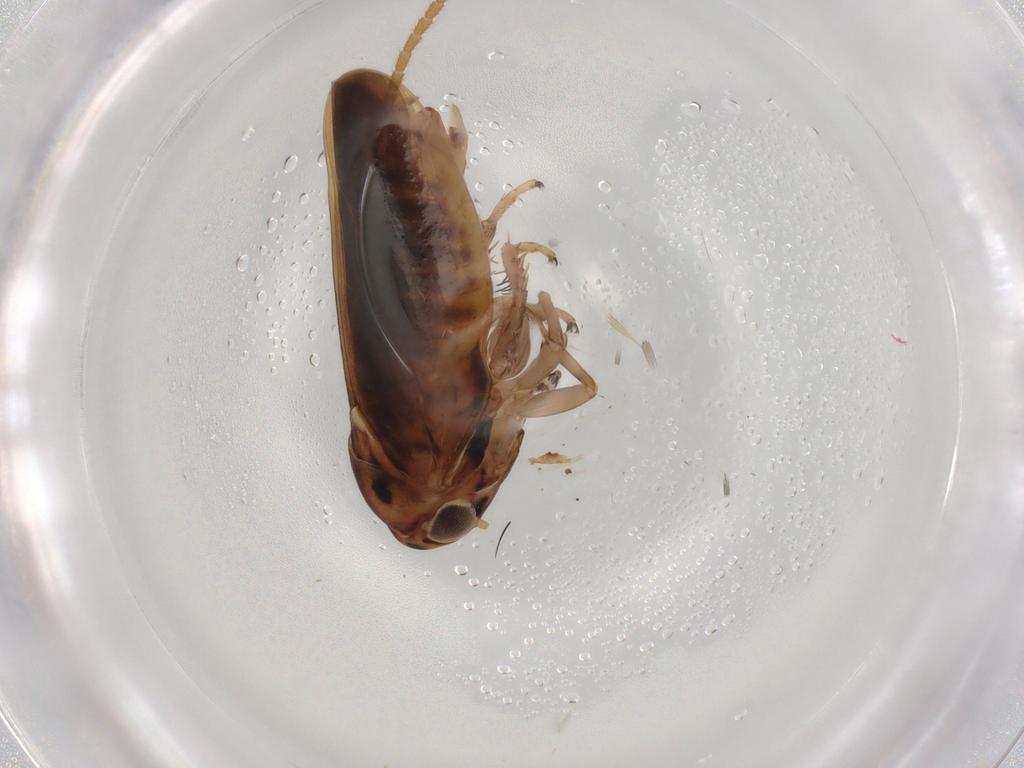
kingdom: Animalia
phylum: Arthropoda
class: Insecta
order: Hemiptera
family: Cicadellidae
